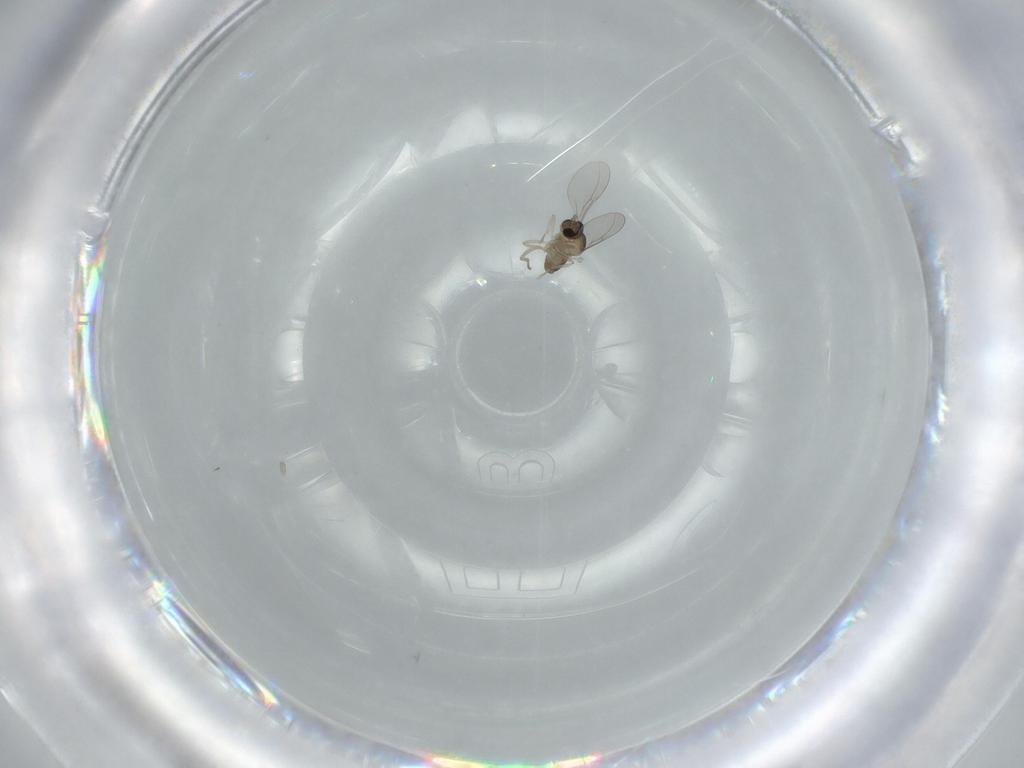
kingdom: Animalia
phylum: Arthropoda
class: Insecta
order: Diptera
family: Cecidomyiidae
